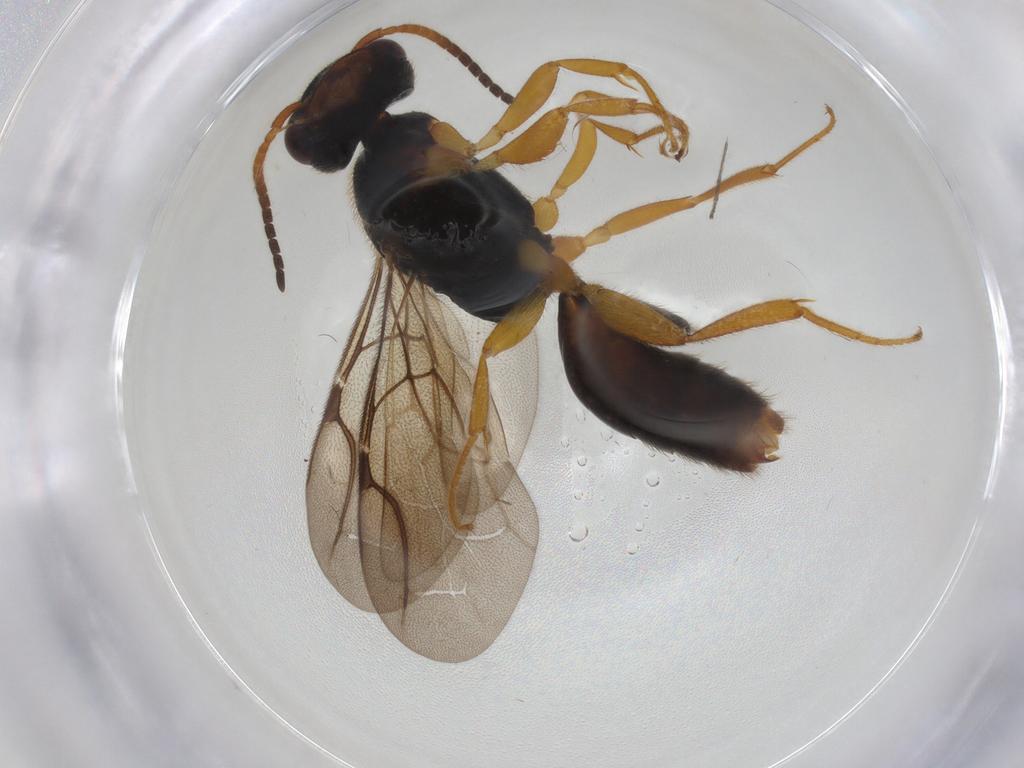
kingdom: Animalia
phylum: Arthropoda
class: Insecta
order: Hymenoptera
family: Bethylidae
